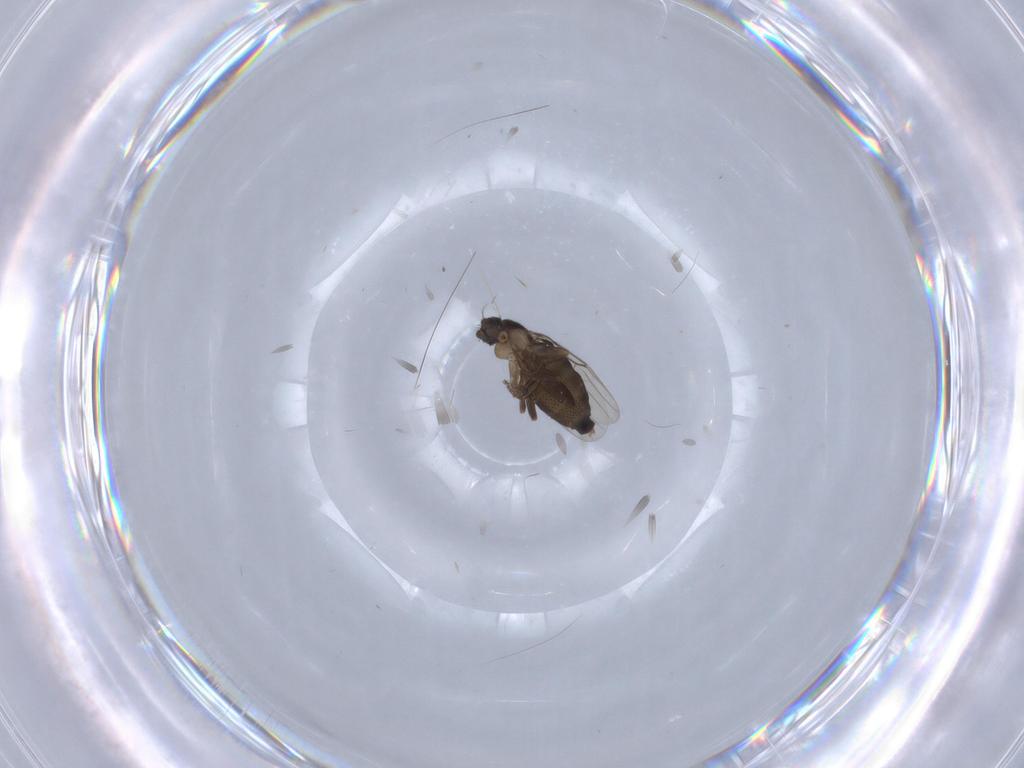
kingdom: Animalia
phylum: Arthropoda
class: Insecta
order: Diptera
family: Phoridae
